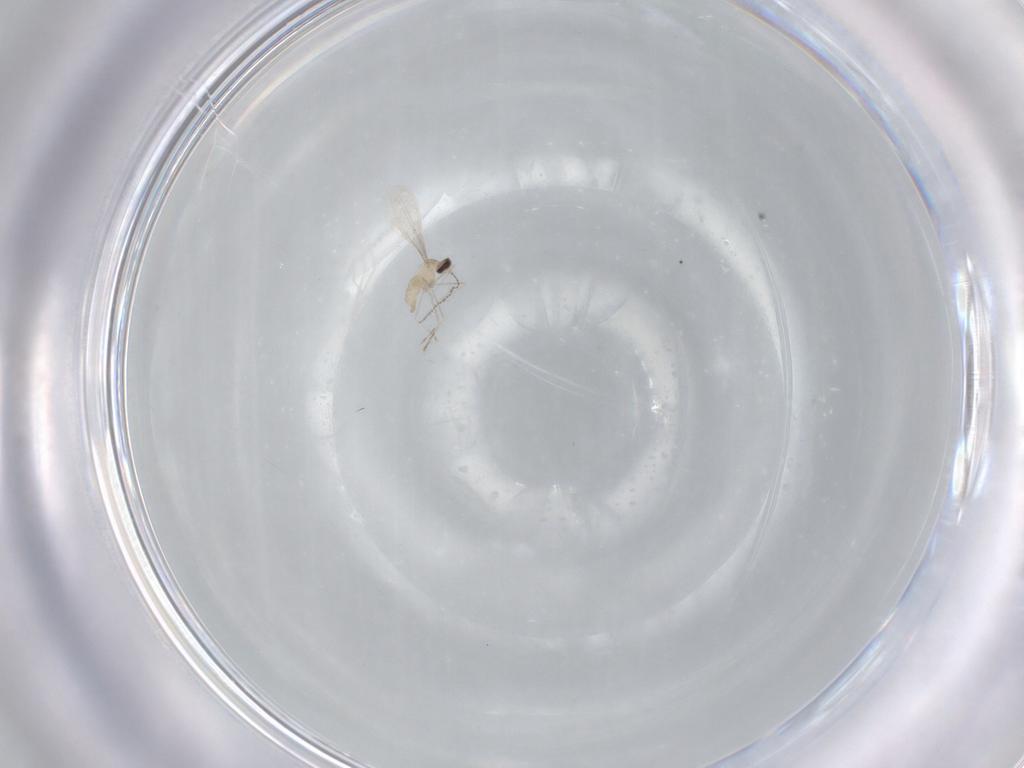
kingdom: Animalia
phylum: Arthropoda
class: Insecta
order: Diptera
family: Cecidomyiidae
